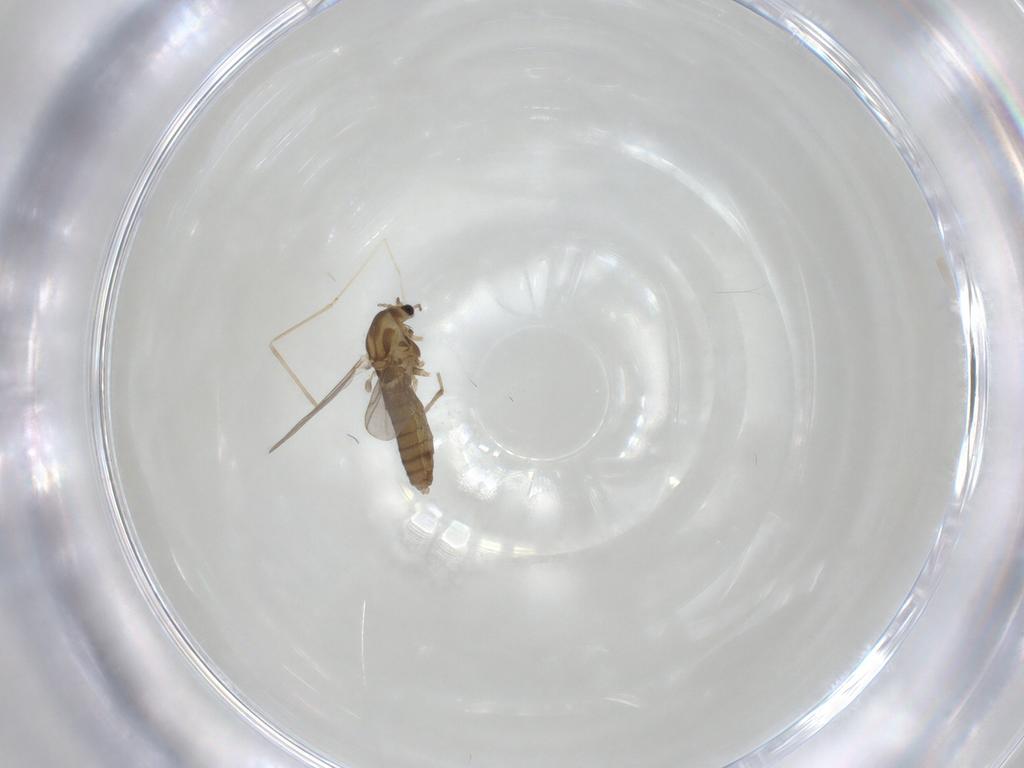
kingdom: Animalia
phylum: Arthropoda
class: Insecta
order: Diptera
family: Chironomidae
